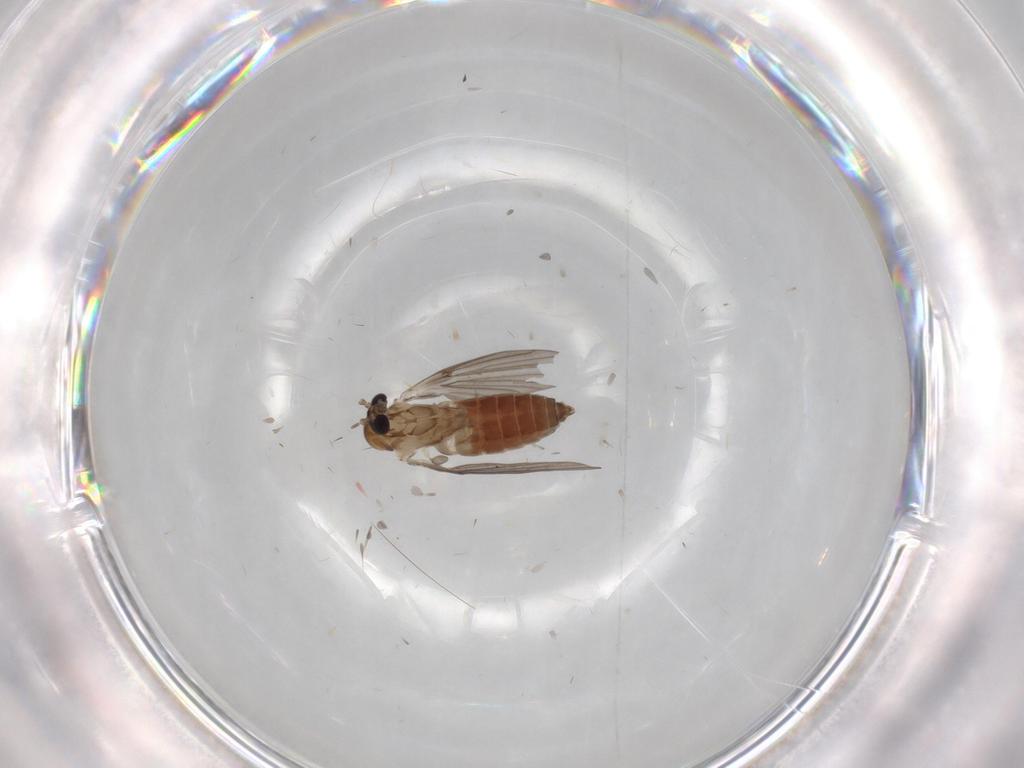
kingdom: Animalia
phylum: Arthropoda
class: Insecta
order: Diptera
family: Sciaridae
